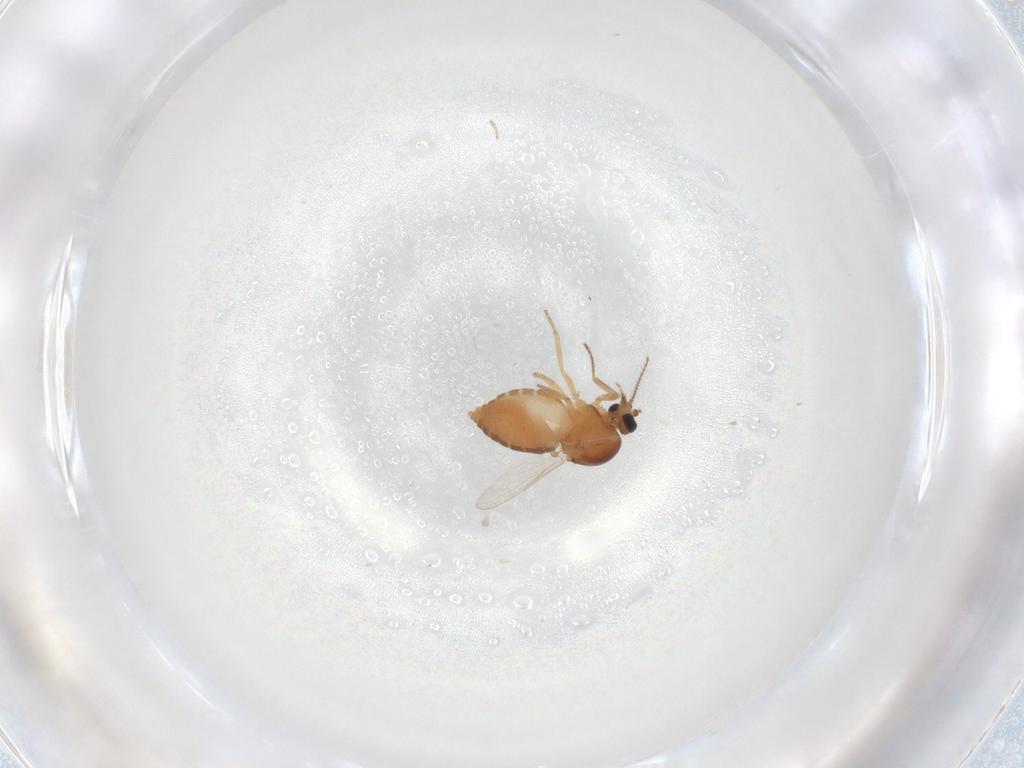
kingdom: Animalia
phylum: Arthropoda
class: Insecta
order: Diptera
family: Ceratopogonidae
